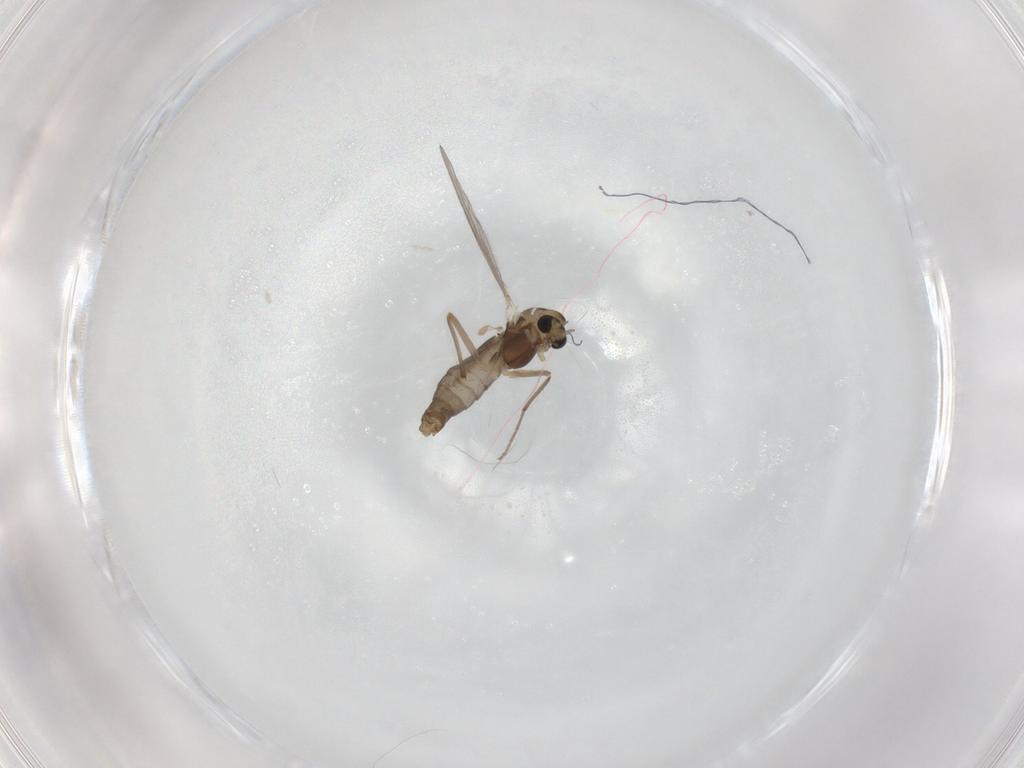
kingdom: Animalia
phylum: Arthropoda
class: Insecta
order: Diptera
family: Chironomidae
